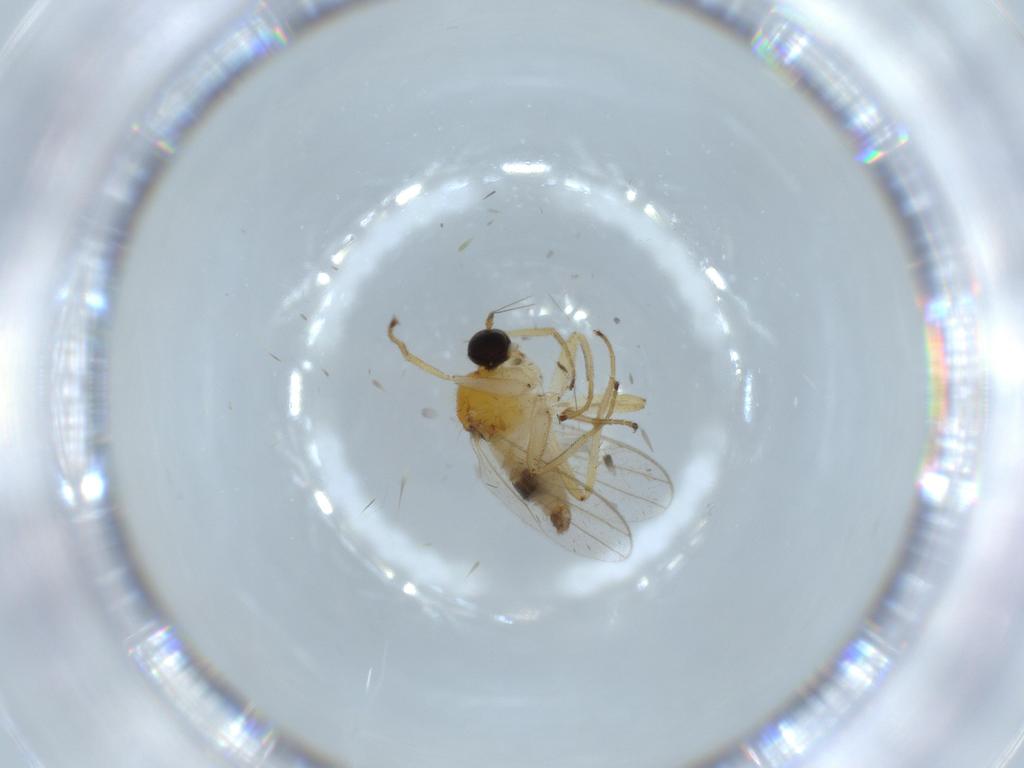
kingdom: Animalia
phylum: Arthropoda
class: Insecta
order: Diptera
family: Hybotidae
